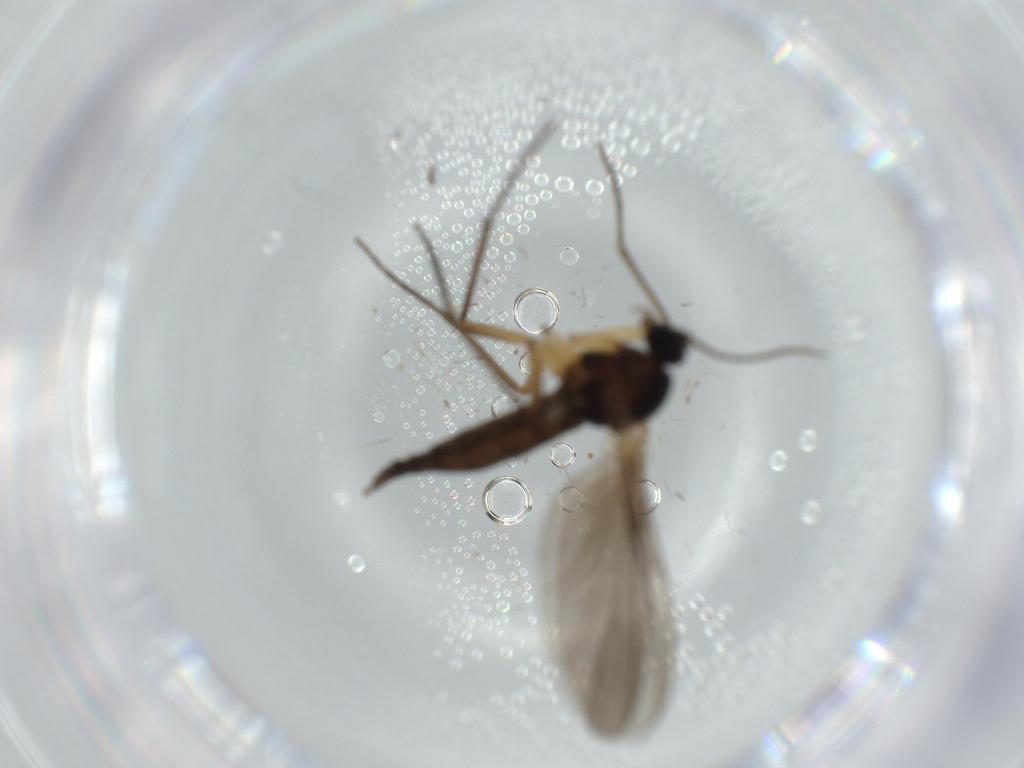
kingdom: Animalia
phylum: Arthropoda
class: Insecta
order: Diptera
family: Sciaridae
